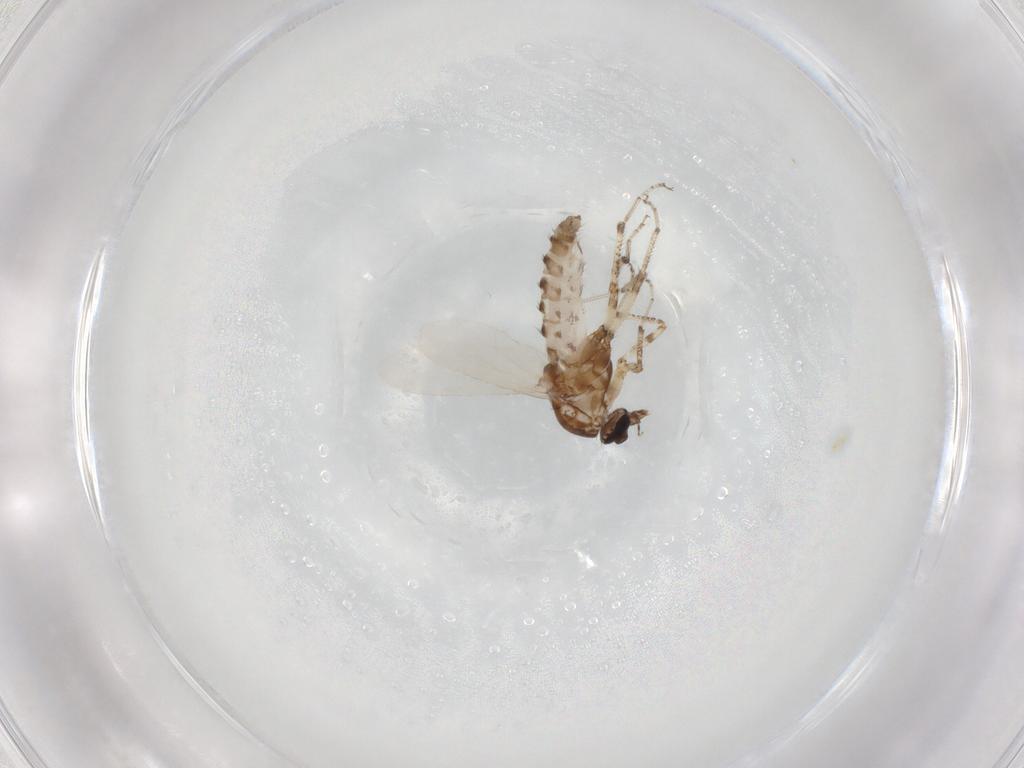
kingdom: Animalia
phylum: Arthropoda
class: Insecta
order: Diptera
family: Ceratopogonidae
